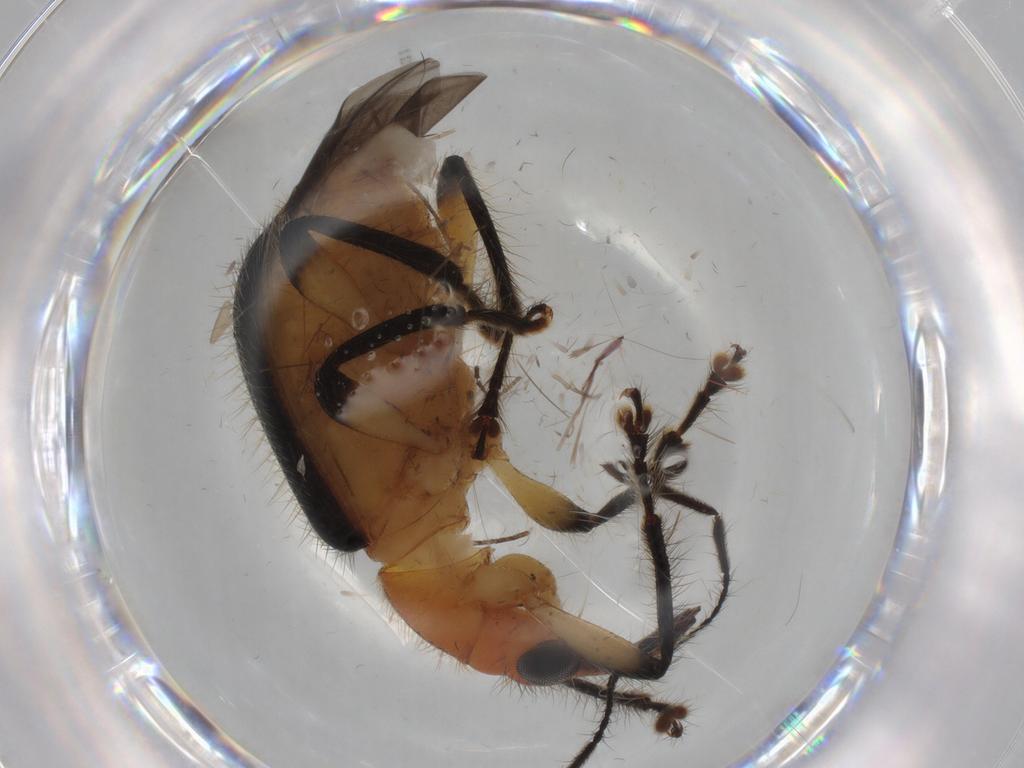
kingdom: Animalia
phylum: Arthropoda
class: Insecta
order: Coleoptera
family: Attelabidae
